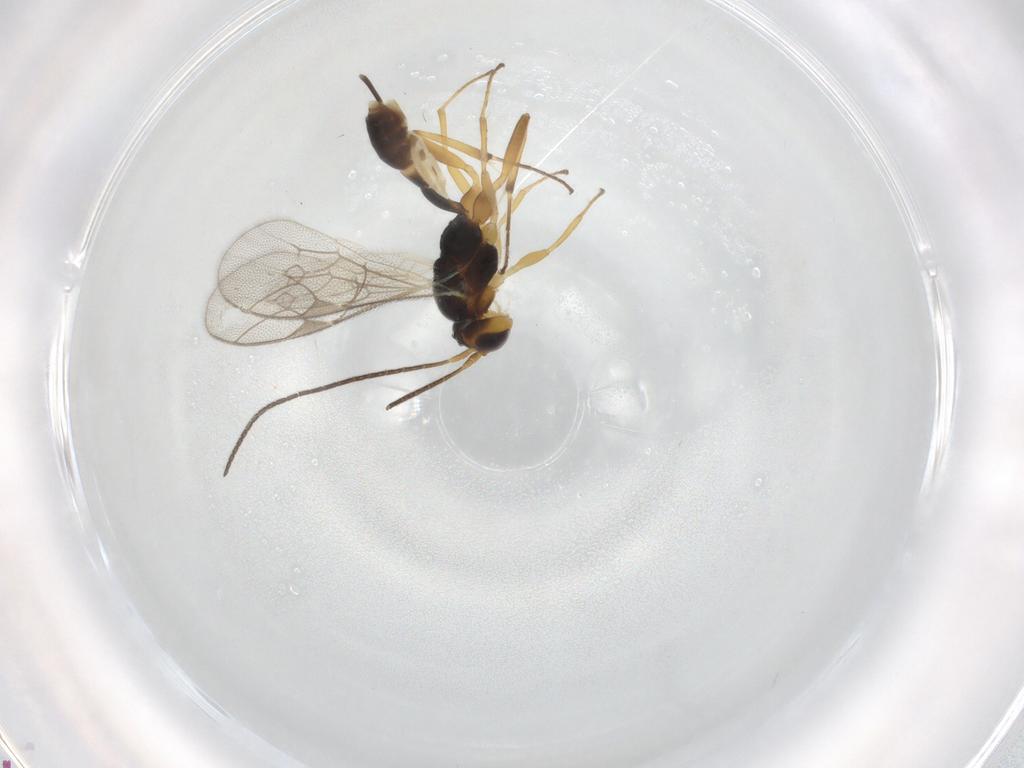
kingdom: Animalia
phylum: Arthropoda
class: Insecta
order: Hymenoptera
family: Ichneumonidae
